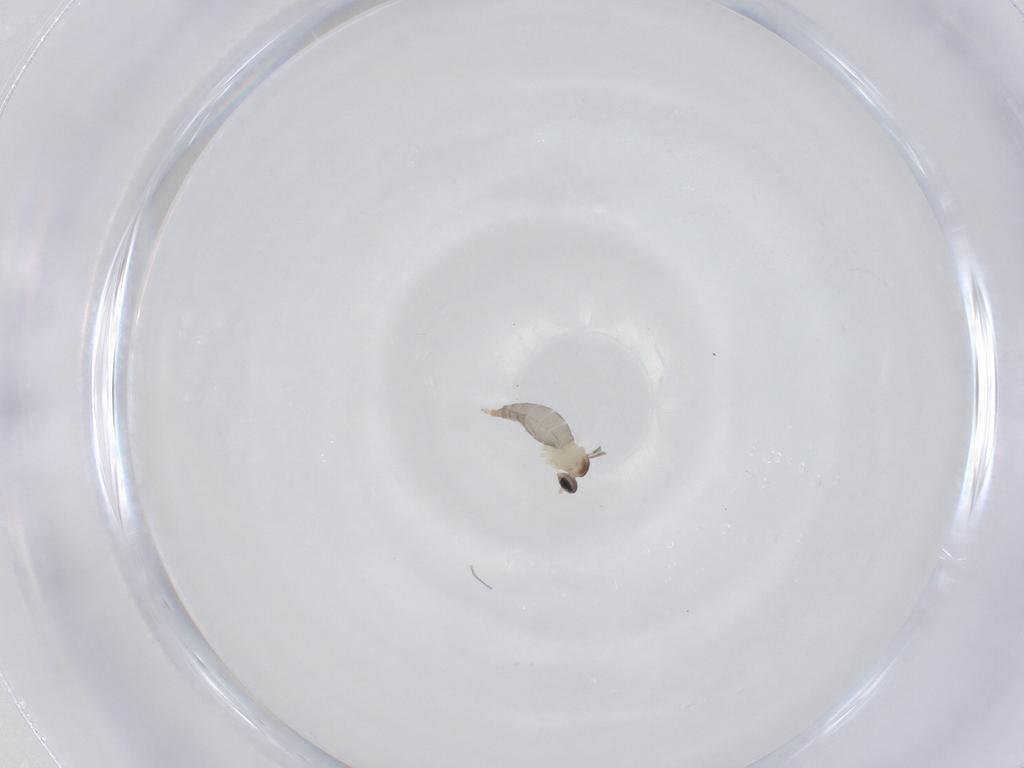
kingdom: Animalia
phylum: Arthropoda
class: Insecta
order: Diptera
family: Cecidomyiidae
